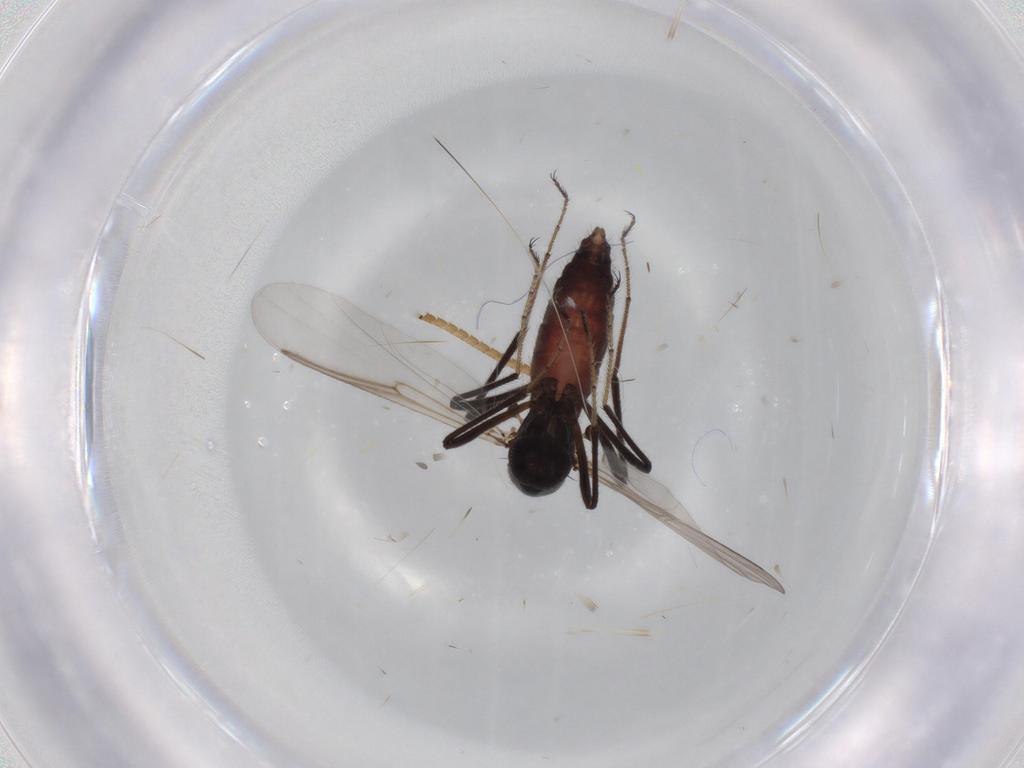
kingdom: Animalia
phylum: Arthropoda
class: Insecta
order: Diptera
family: Ceratopogonidae
